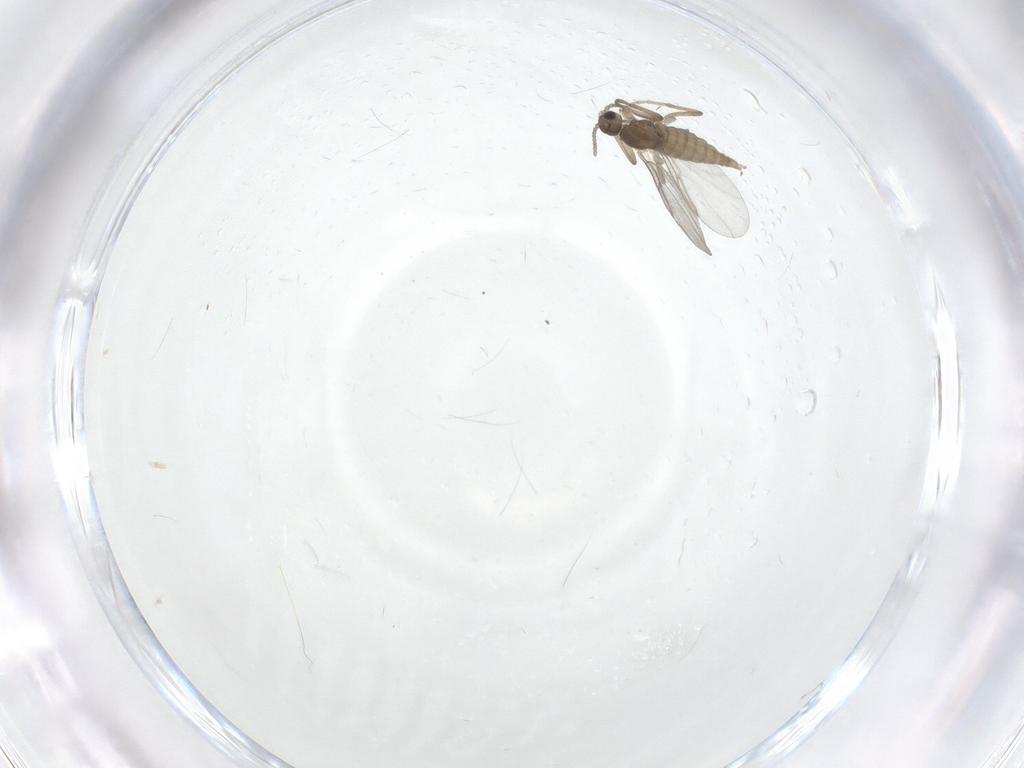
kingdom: Animalia
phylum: Arthropoda
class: Insecta
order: Diptera
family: Cecidomyiidae
